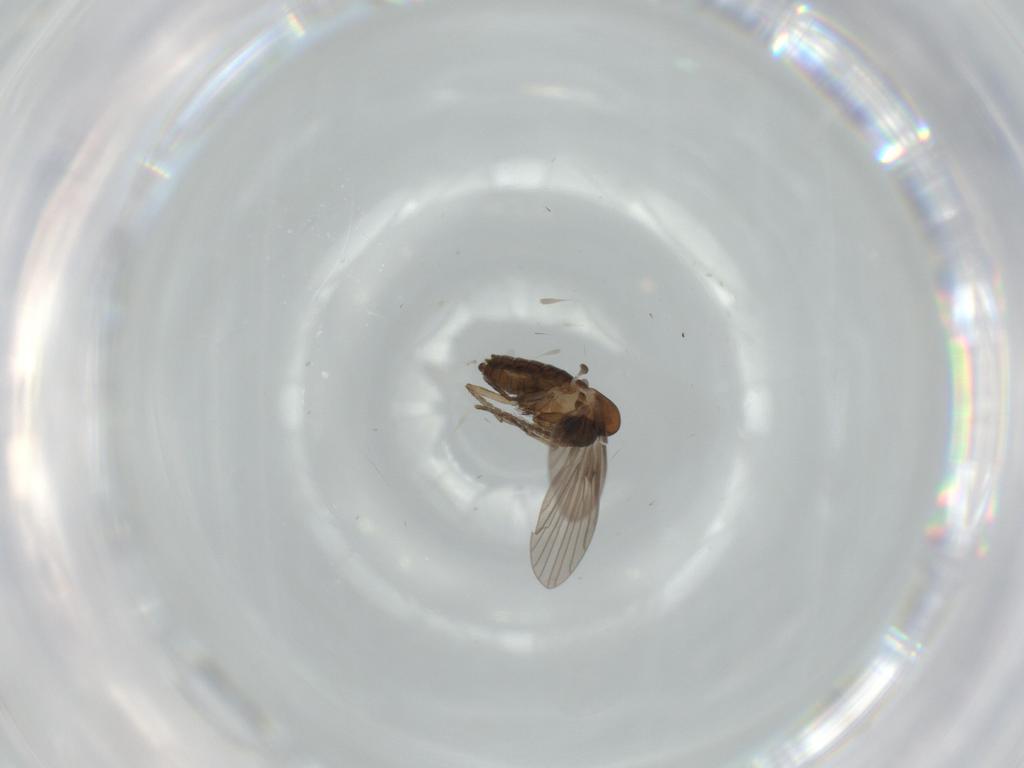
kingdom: Animalia
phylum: Arthropoda
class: Insecta
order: Diptera
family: Psychodidae
